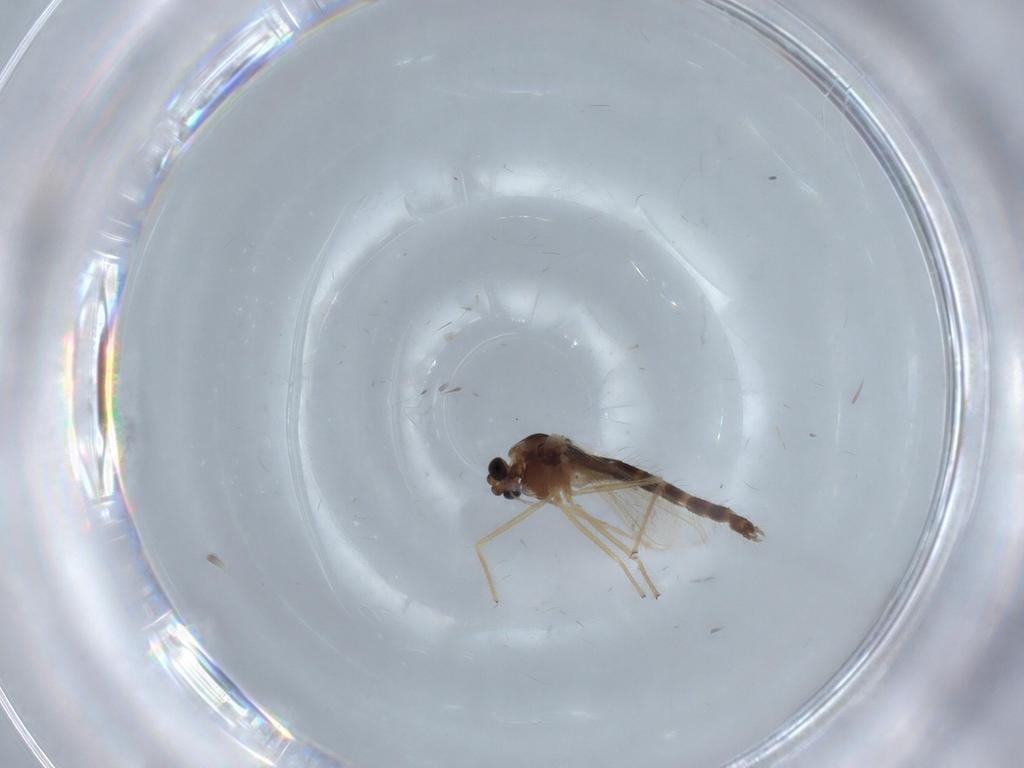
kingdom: Animalia
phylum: Arthropoda
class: Insecta
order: Diptera
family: Chironomidae
